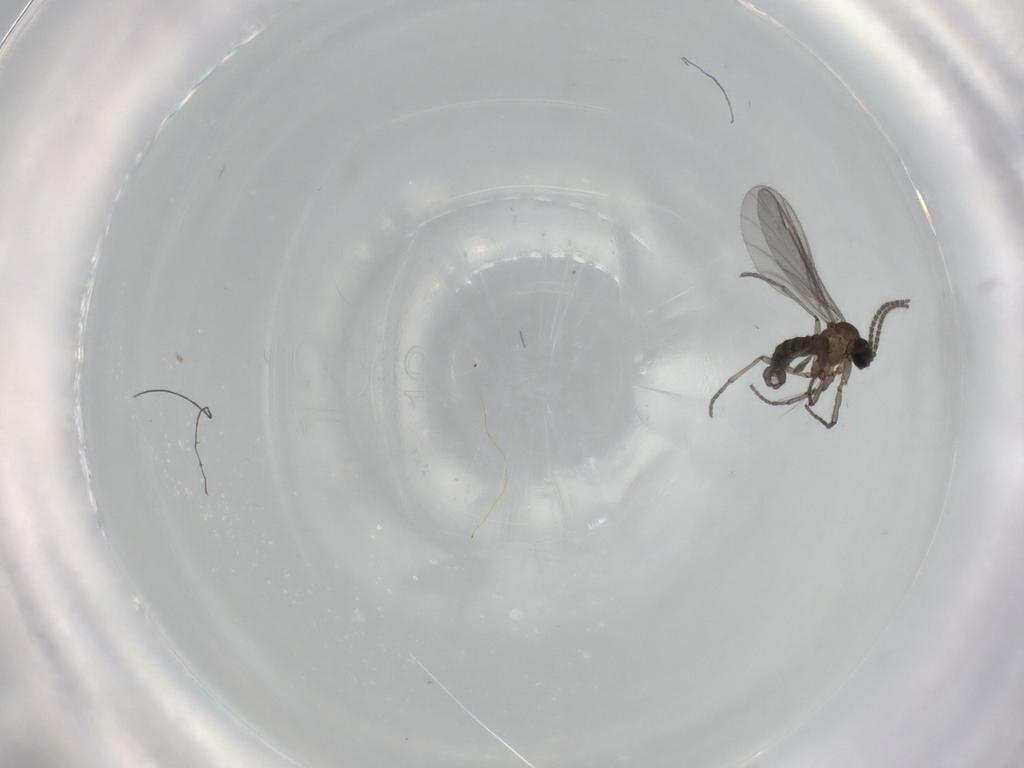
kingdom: Animalia
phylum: Arthropoda
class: Insecta
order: Diptera
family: Sciaridae
